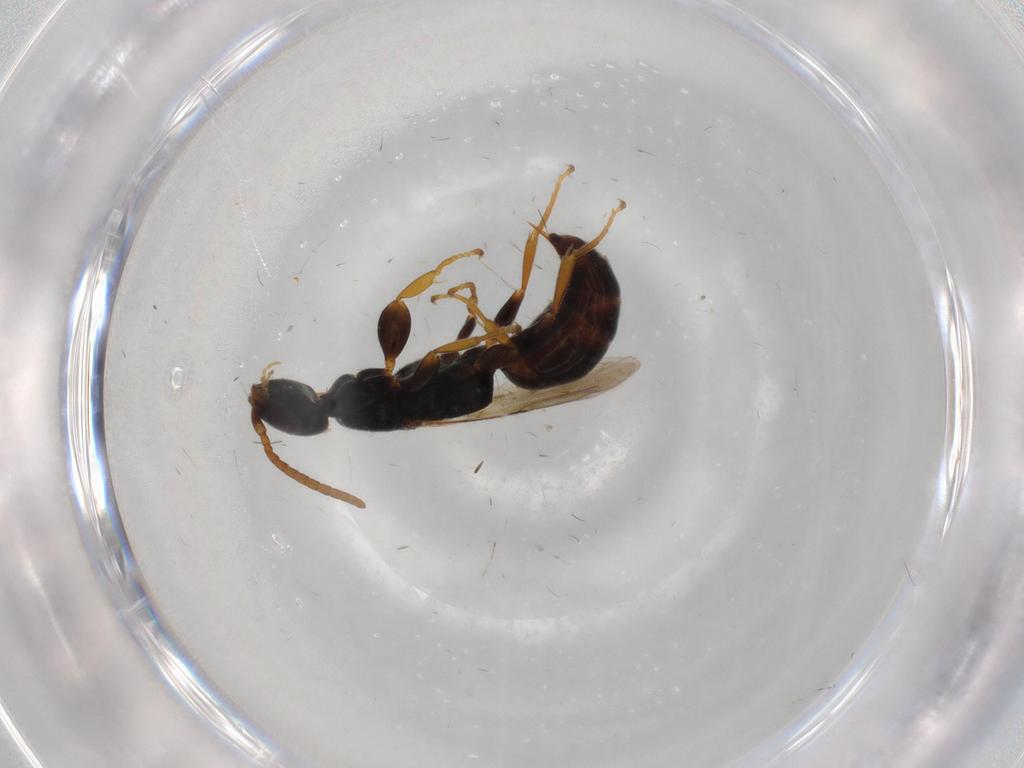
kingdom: Animalia
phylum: Arthropoda
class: Insecta
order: Hymenoptera
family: Bethylidae
